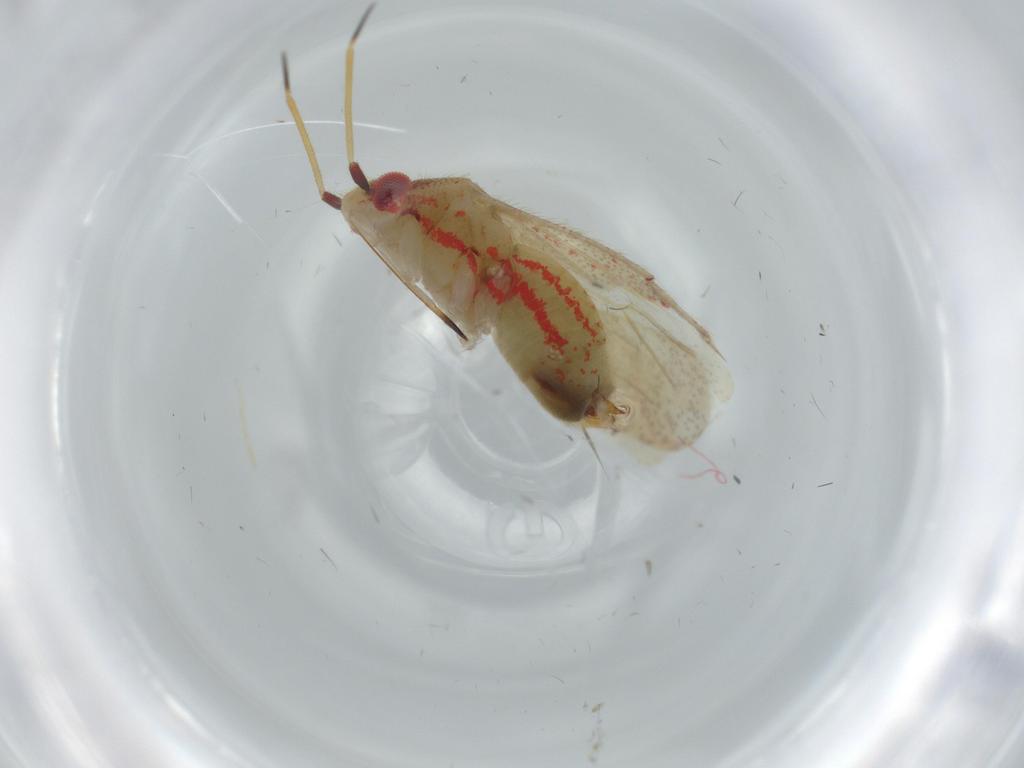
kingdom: Animalia
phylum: Arthropoda
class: Insecta
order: Hemiptera
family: Miridae
